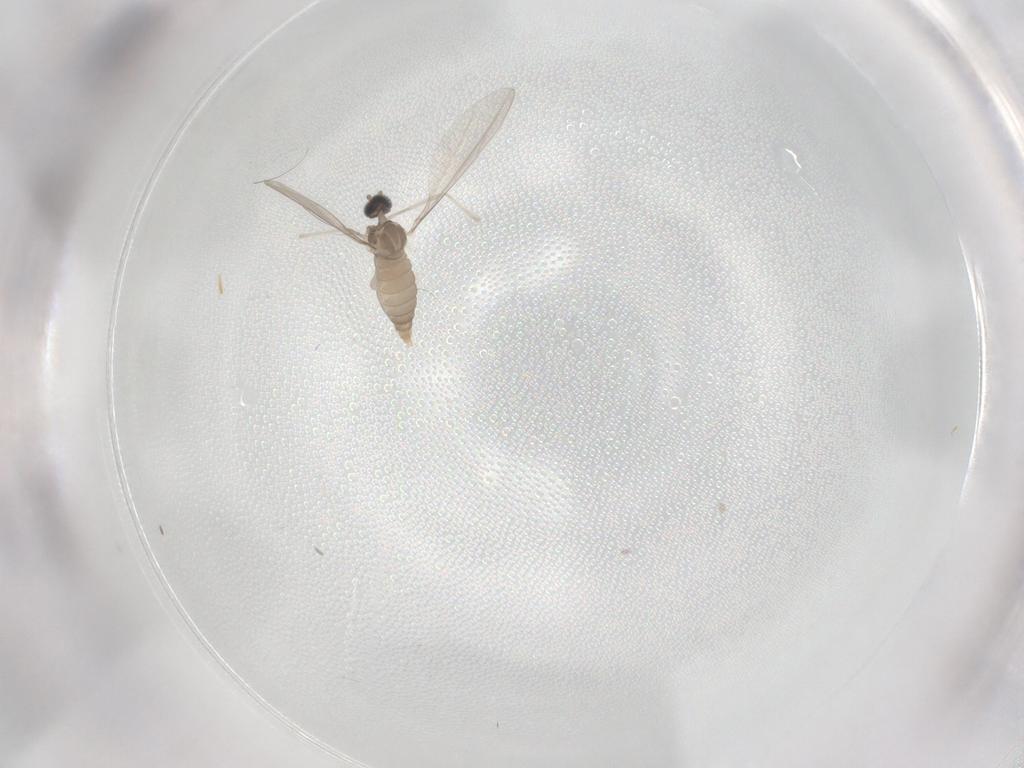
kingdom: Animalia
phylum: Arthropoda
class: Insecta
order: Diptera
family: Cecidomyiidae
